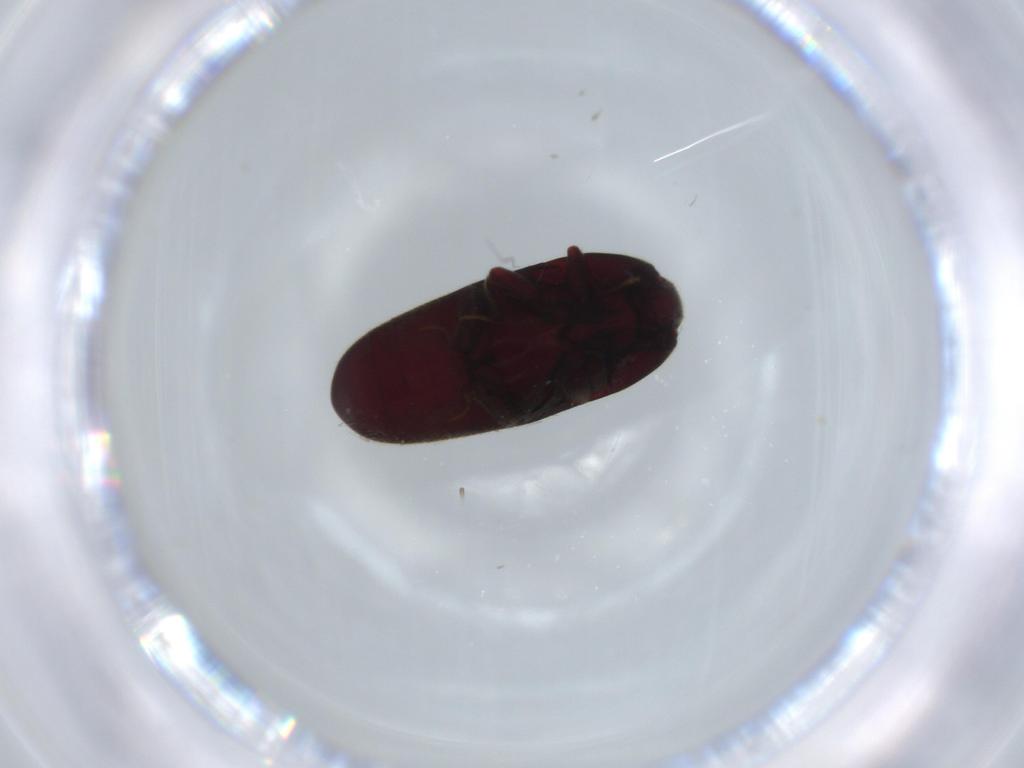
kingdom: Animalia
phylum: Arthropoda
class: Insecta
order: Coleoptera
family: Throscidae
